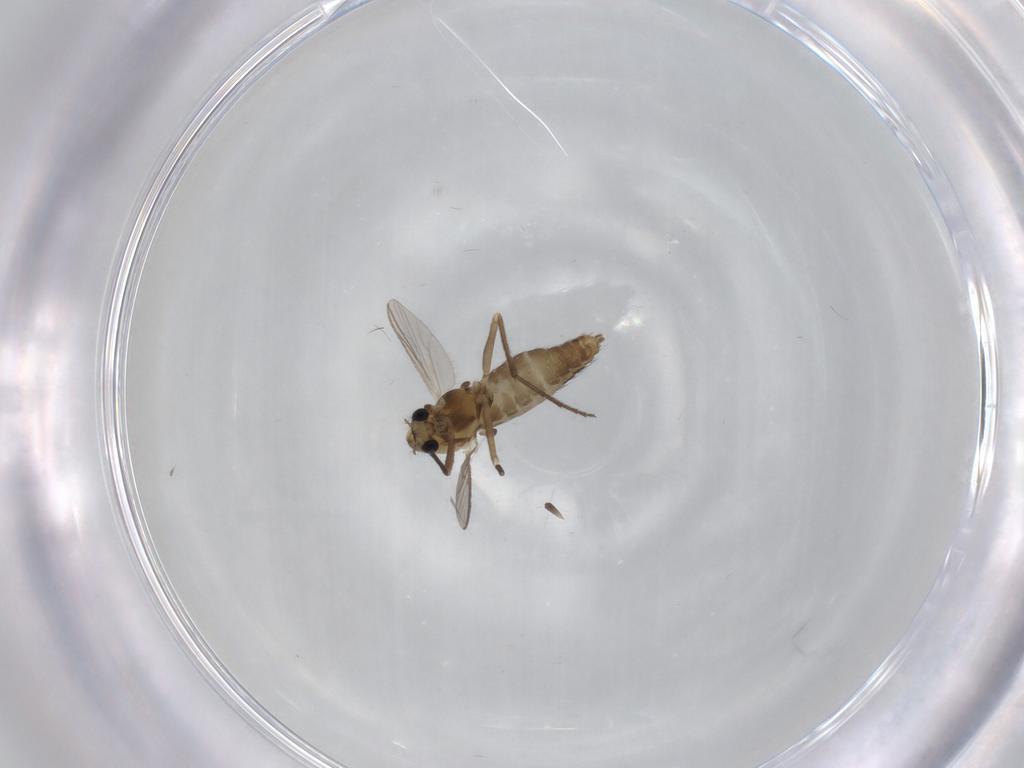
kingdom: Animalia
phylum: Arthropoda
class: Insecta
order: Diptera
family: Chironomidae
